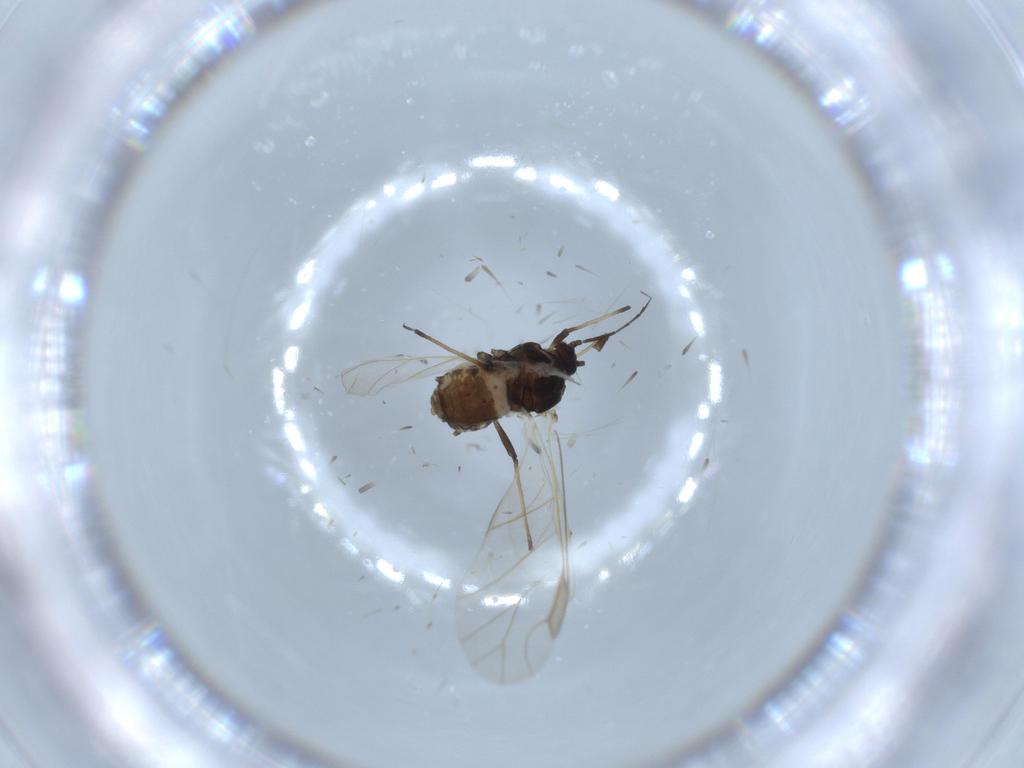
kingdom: Animalia
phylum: Arthropoda
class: Insecta
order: Hemiptera
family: Aphididae
